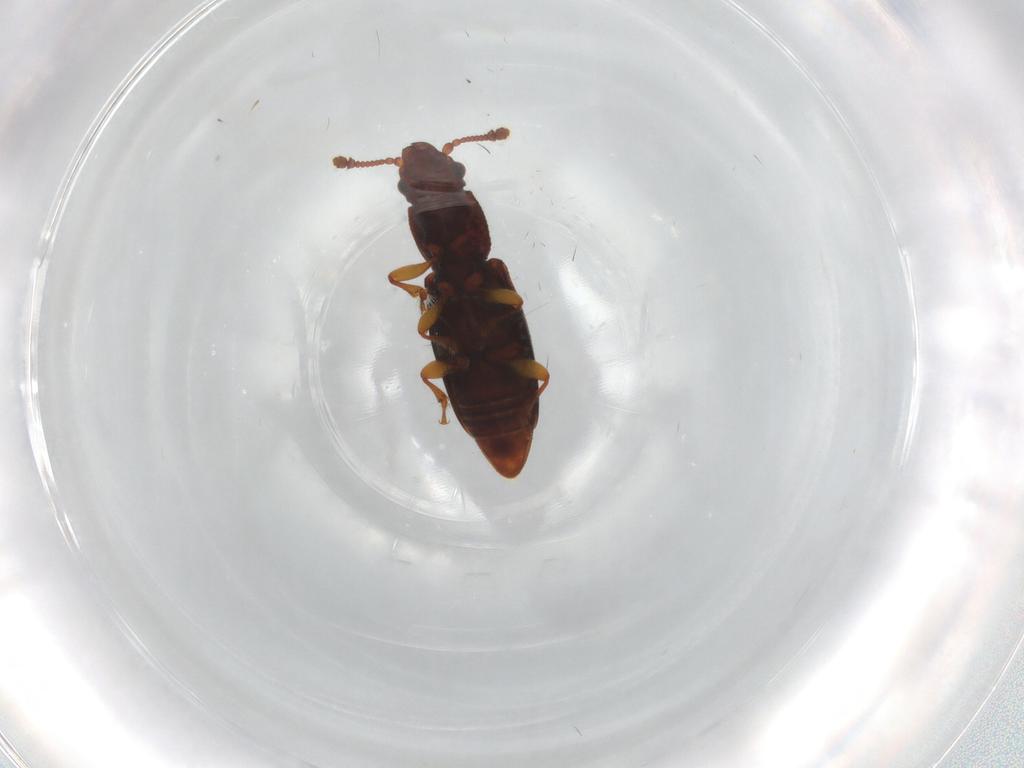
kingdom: Animalia
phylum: Arthropoda
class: Insecta
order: Coleoptera
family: Monotomidae
